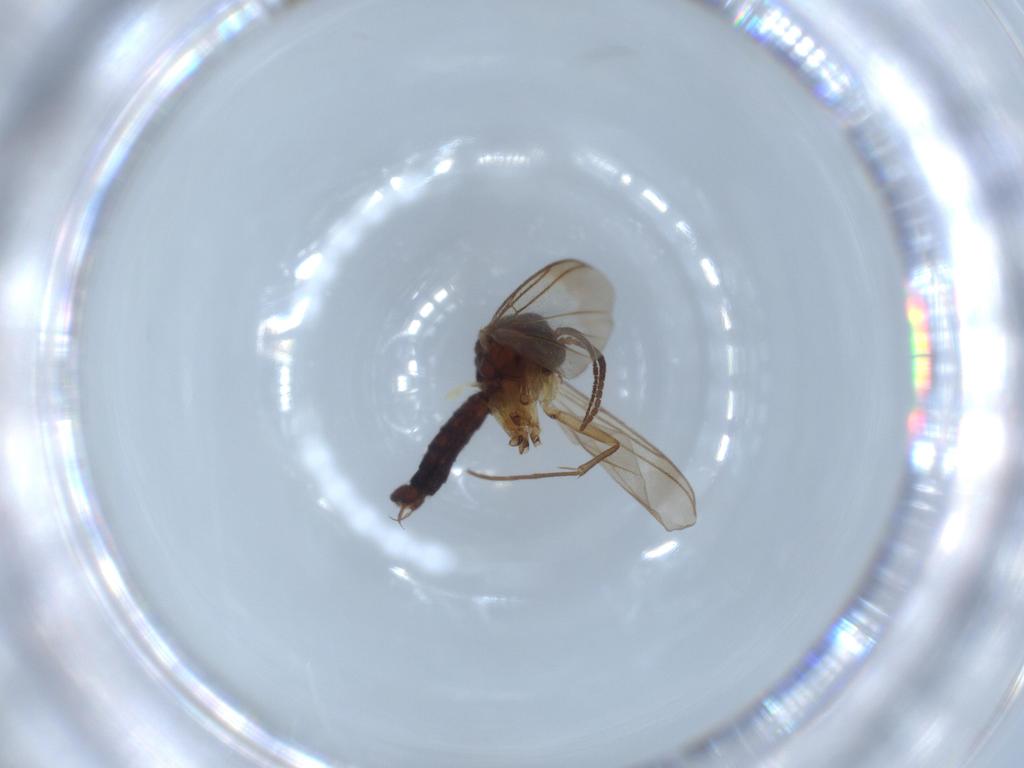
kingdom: Animalia
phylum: Arthropoda
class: Insecta
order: Diptera
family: Mycetophilidae
